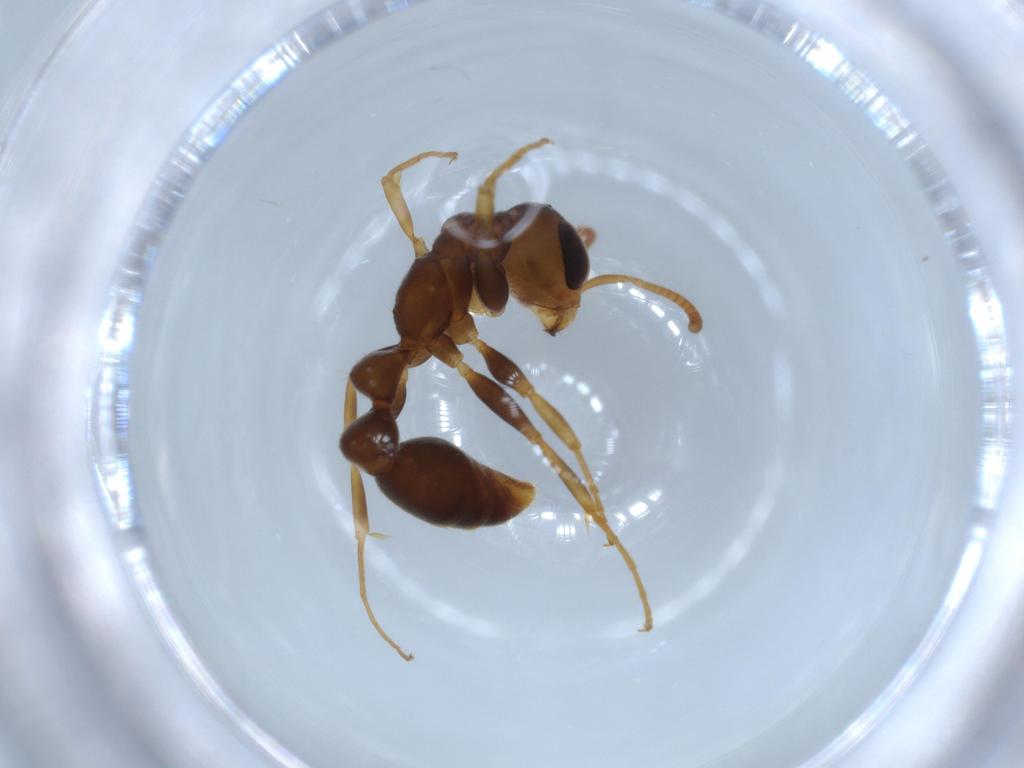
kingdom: Animalia
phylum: Arthropoda
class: Insecta
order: Hymenoptera
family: Formicidae
